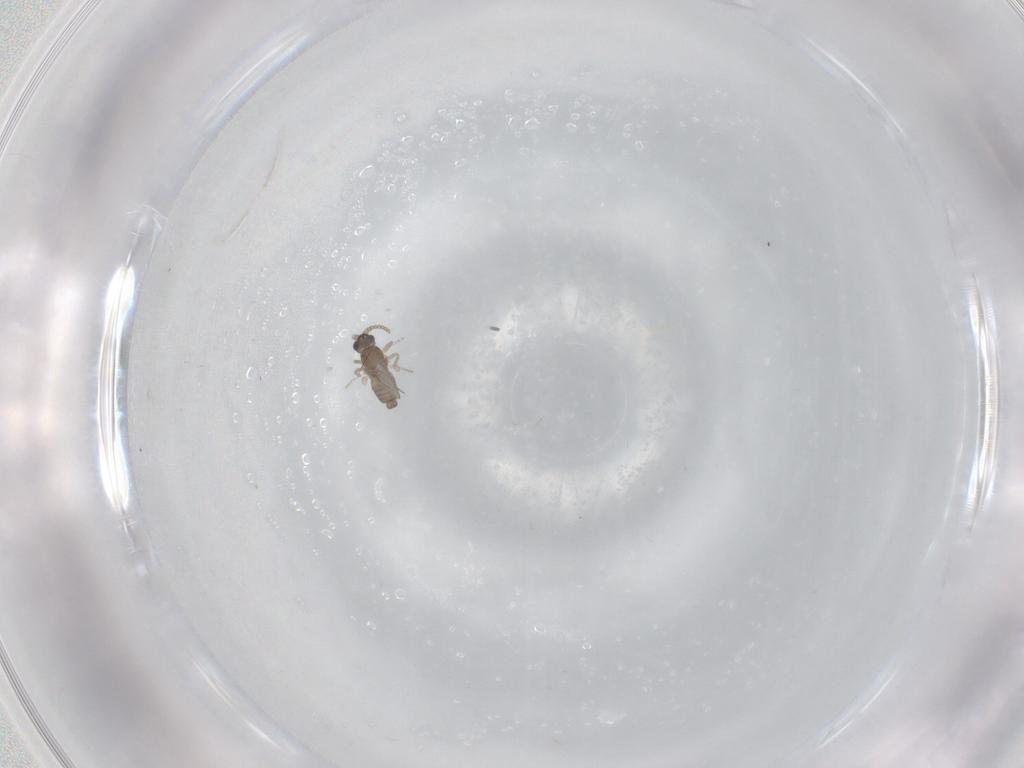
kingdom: Animalia
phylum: Arthropoda
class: Insecta
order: Diptera
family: Cecidomyiidae
